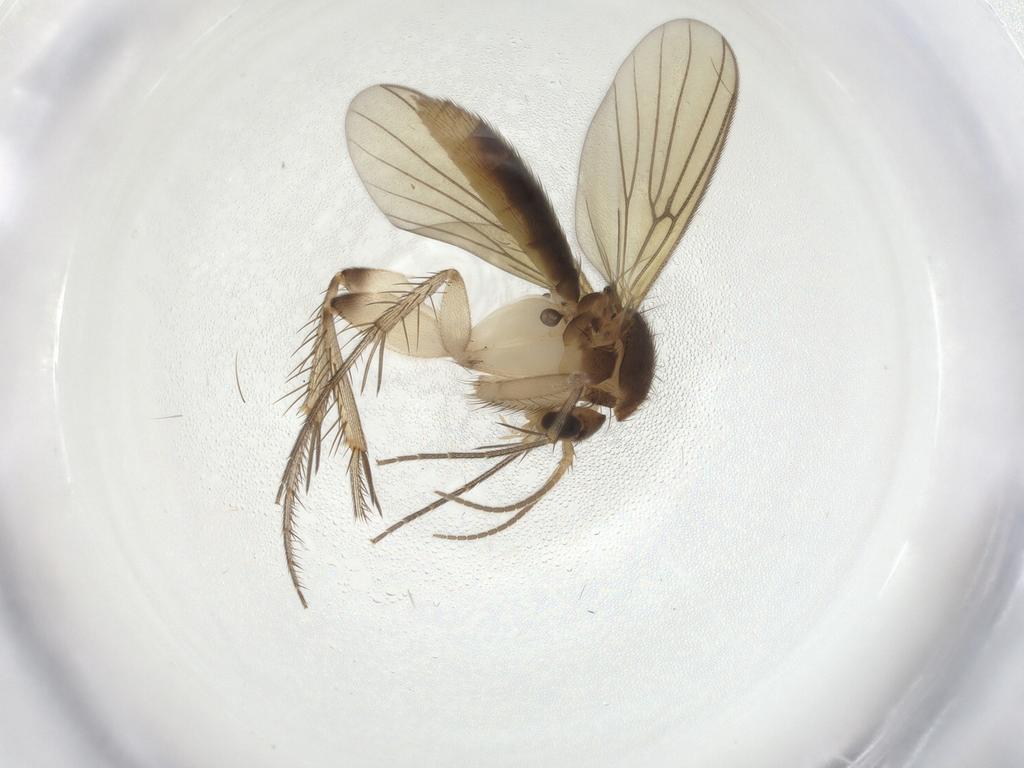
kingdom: Animalia
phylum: Arthropoda
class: Insecta
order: Diptera
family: Mycetophilidae
